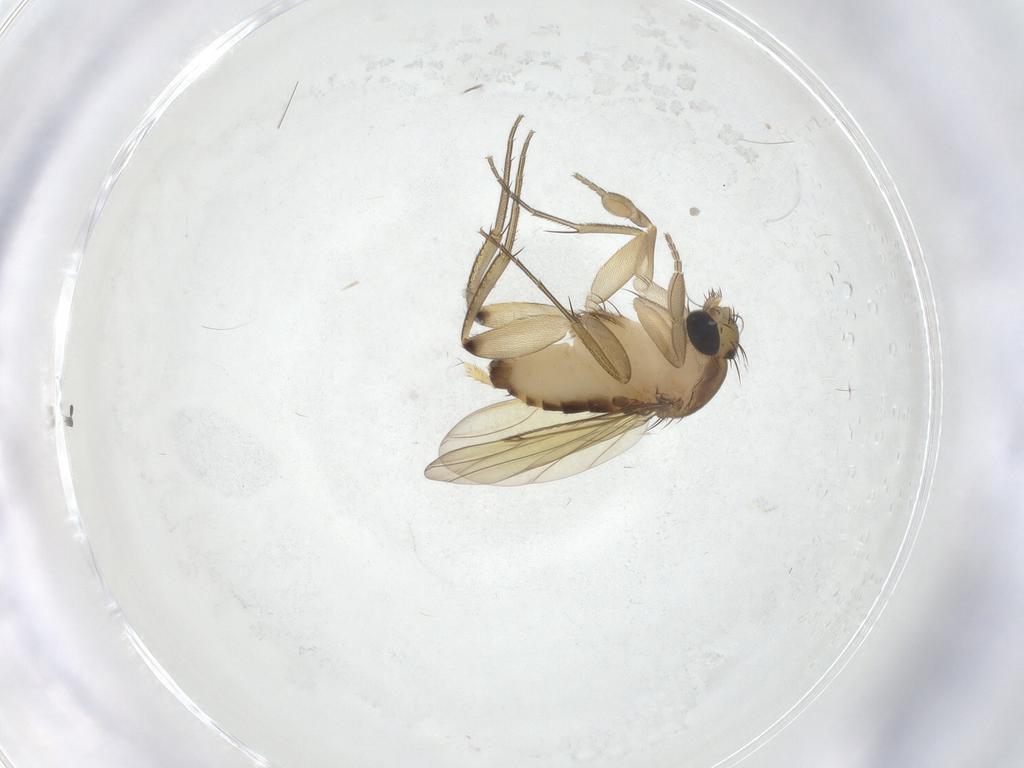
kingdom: Animalia
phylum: Arthropoda
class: Insecta
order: Diptera
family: Phoridae
